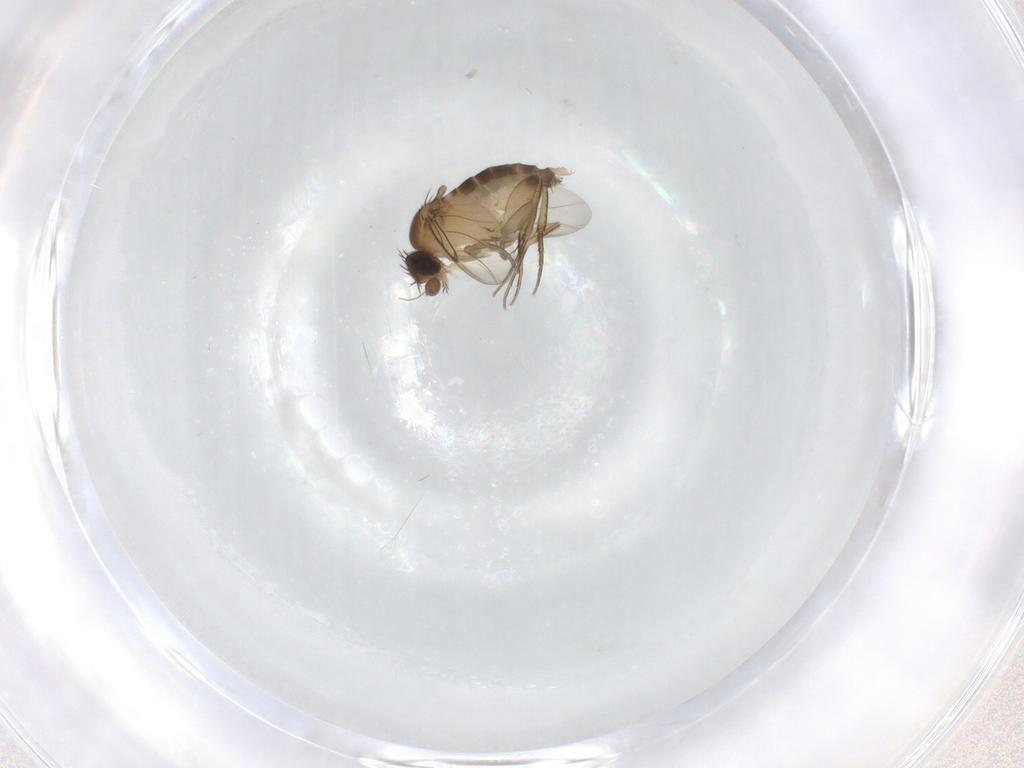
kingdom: Animalia
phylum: Arthropoda
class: Insecta
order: Diptera
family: Phoridae
